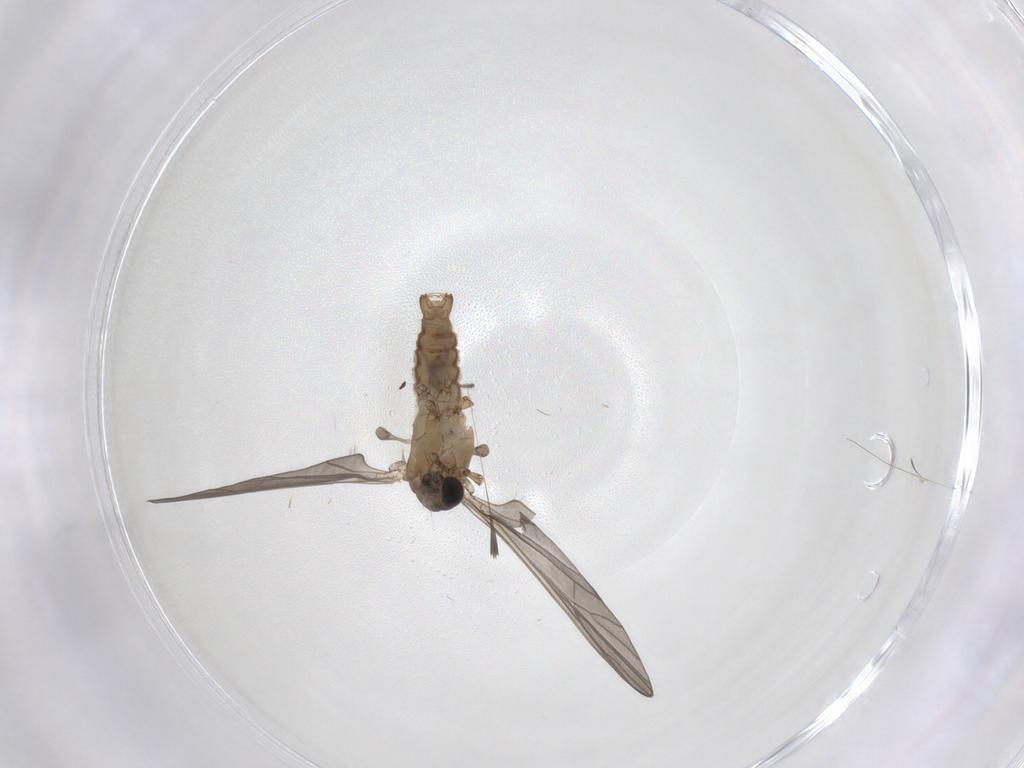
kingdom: Animalia
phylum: Arthropoda
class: Insecta
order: Diptera
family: Limoniidae
